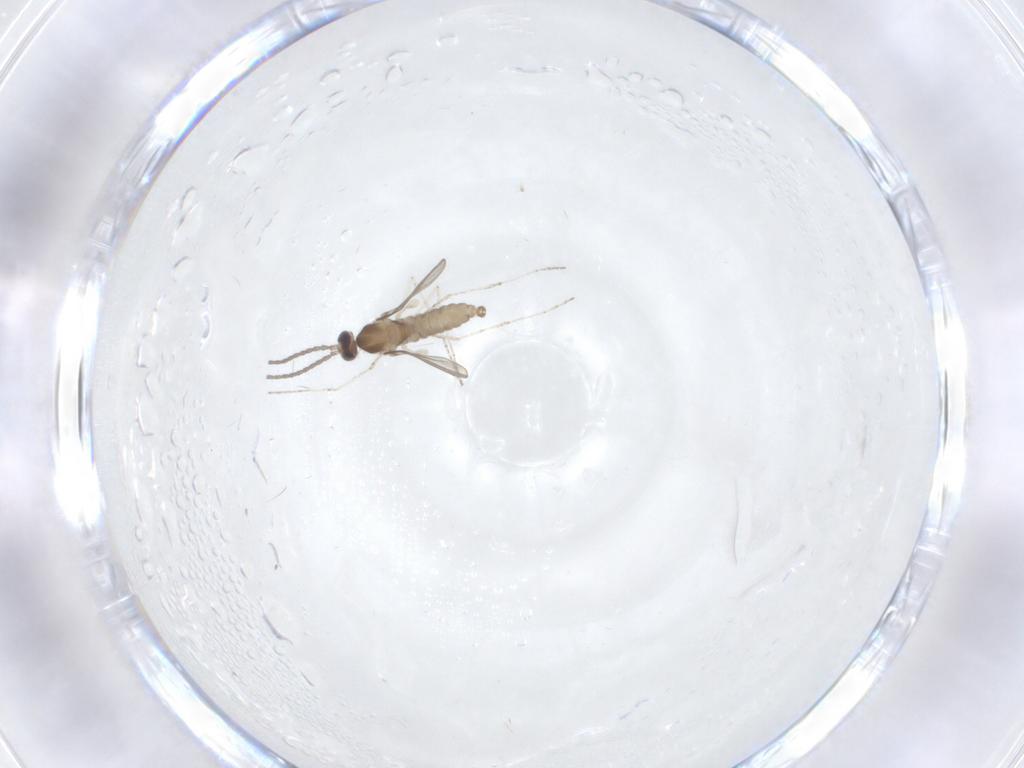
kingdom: Animalia
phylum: Arthropoda
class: Insecta
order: Diptera
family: Cecidomyiidae
